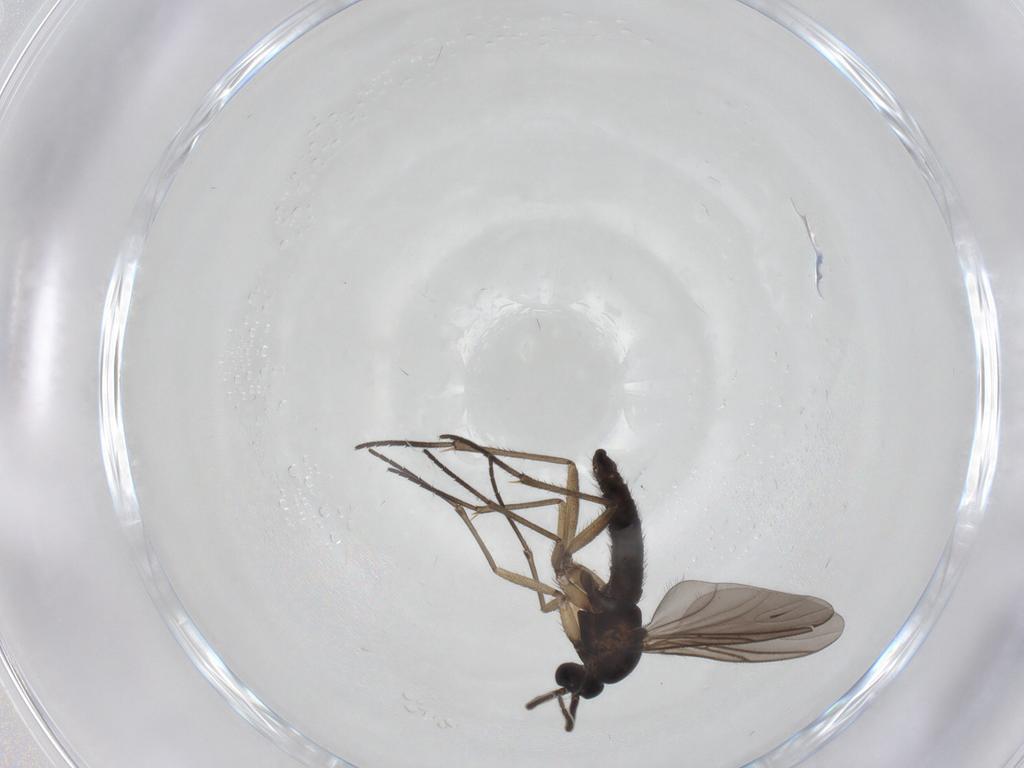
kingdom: Animalia
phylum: Arthropoda
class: Insecta
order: Diptera
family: Sciaridae
